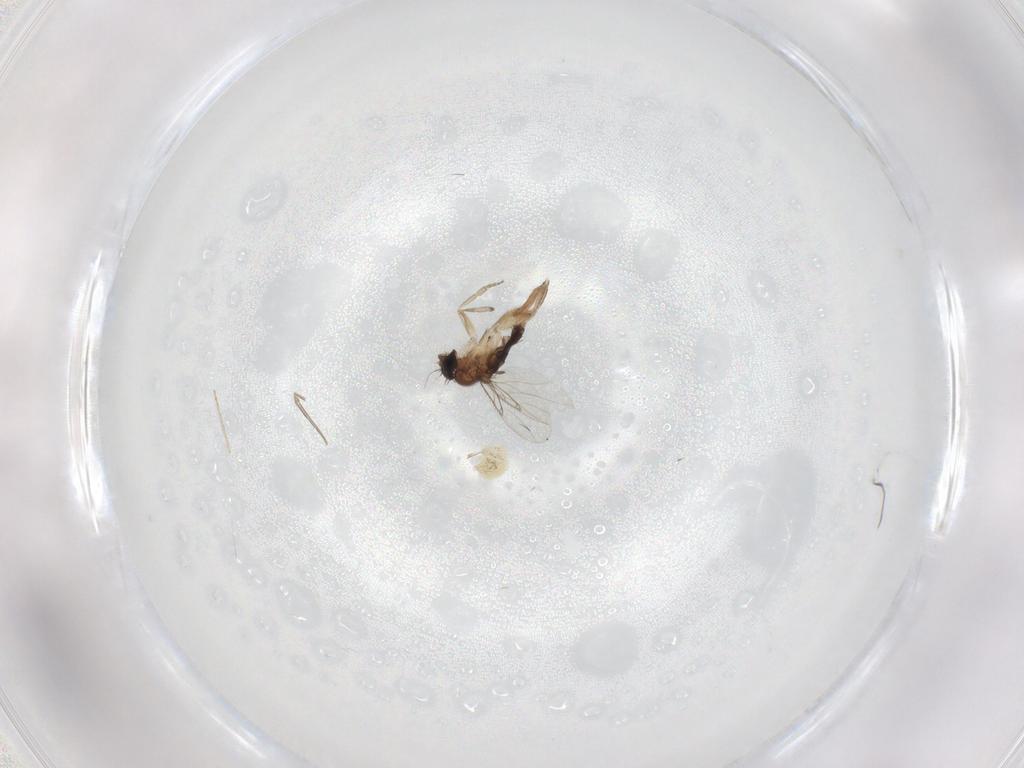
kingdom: Animalia
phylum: Arthropoda
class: Insecta
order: Diptera
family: Phoridae
